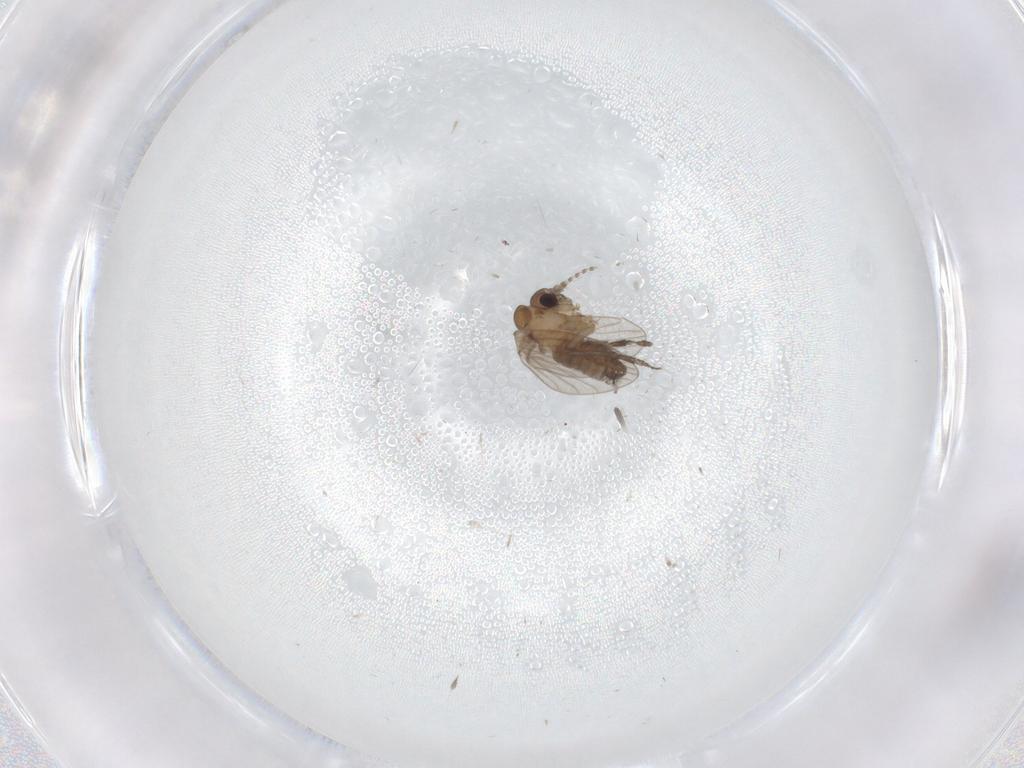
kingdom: Animalia
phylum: Arthropoda
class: Insecta
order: Diptera
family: Psychodidae
